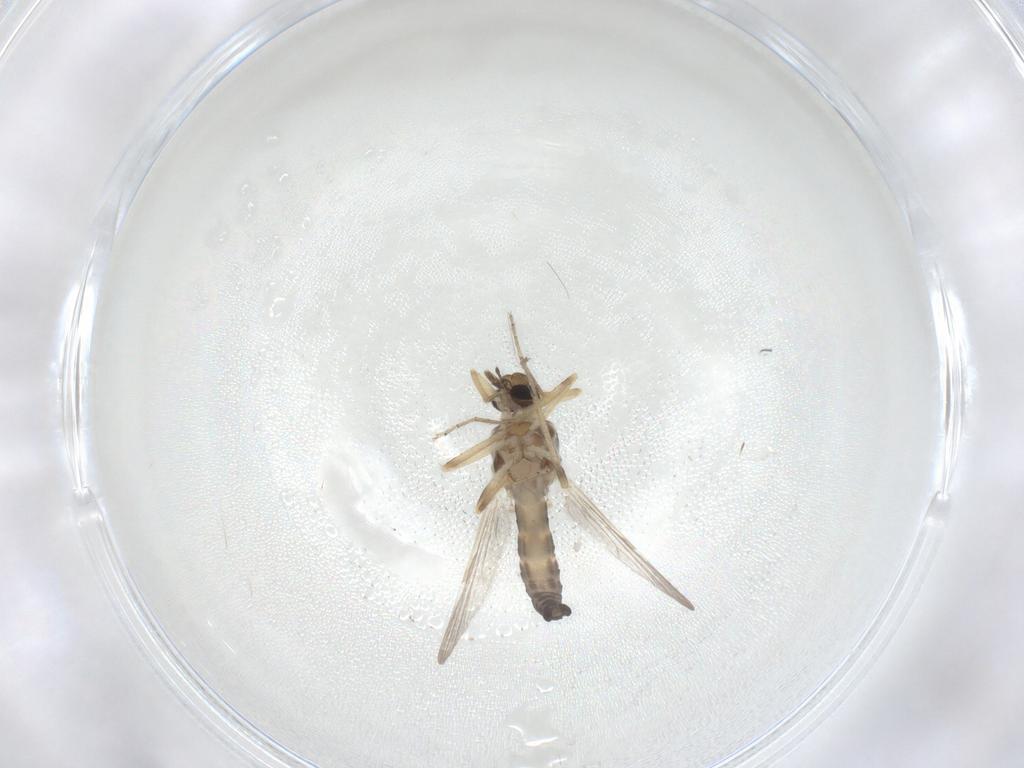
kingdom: Animalia
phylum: Arthropoda
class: Insecta
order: Diptera
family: Ceratopogonidae
